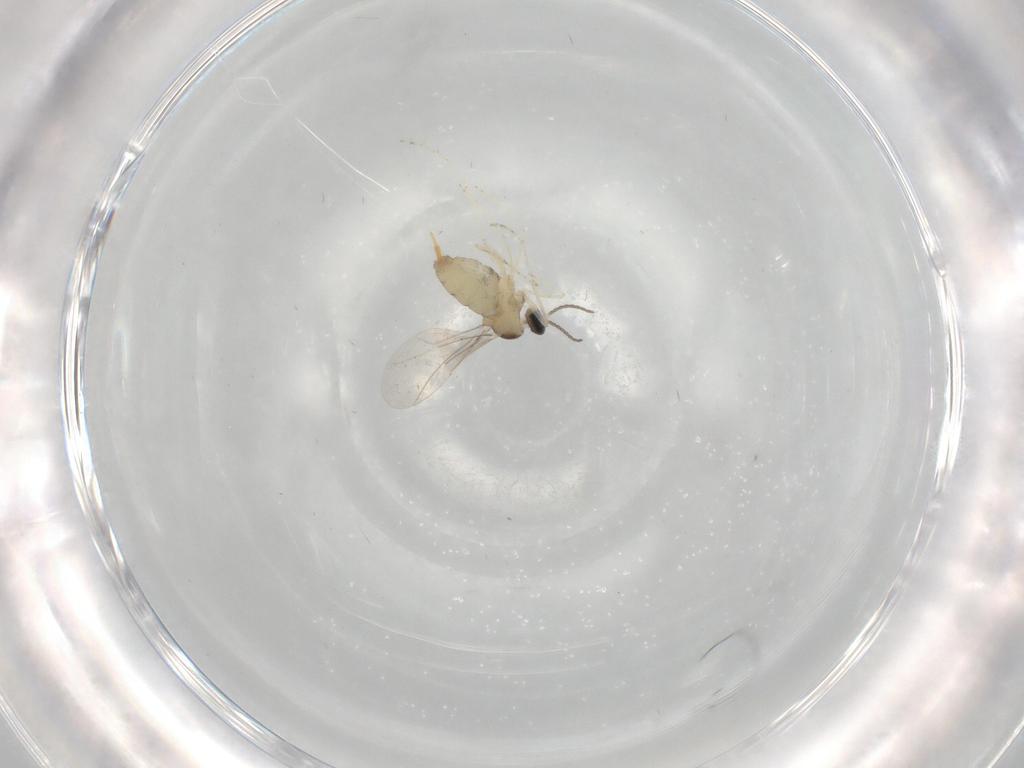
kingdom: Animalia
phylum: Arthropoda
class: Insecta
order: Diptera
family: Cecidomyiidae
